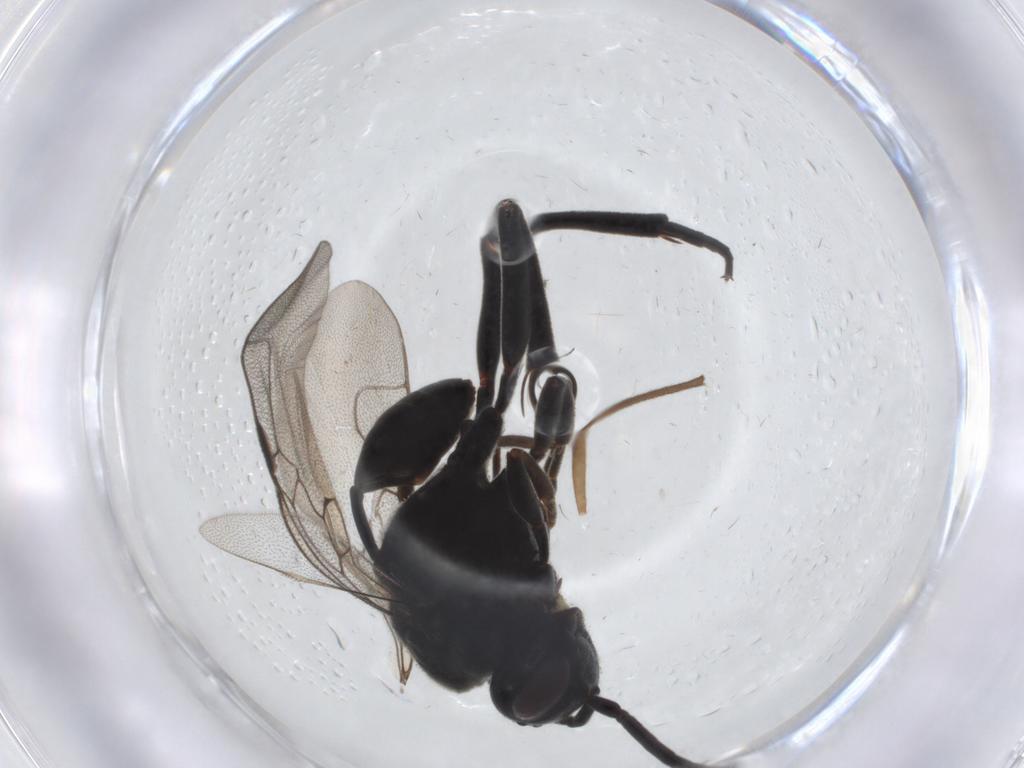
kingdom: Animalia
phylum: Arthropoda
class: Insecta
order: Hymenoptera
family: Evaniidae
